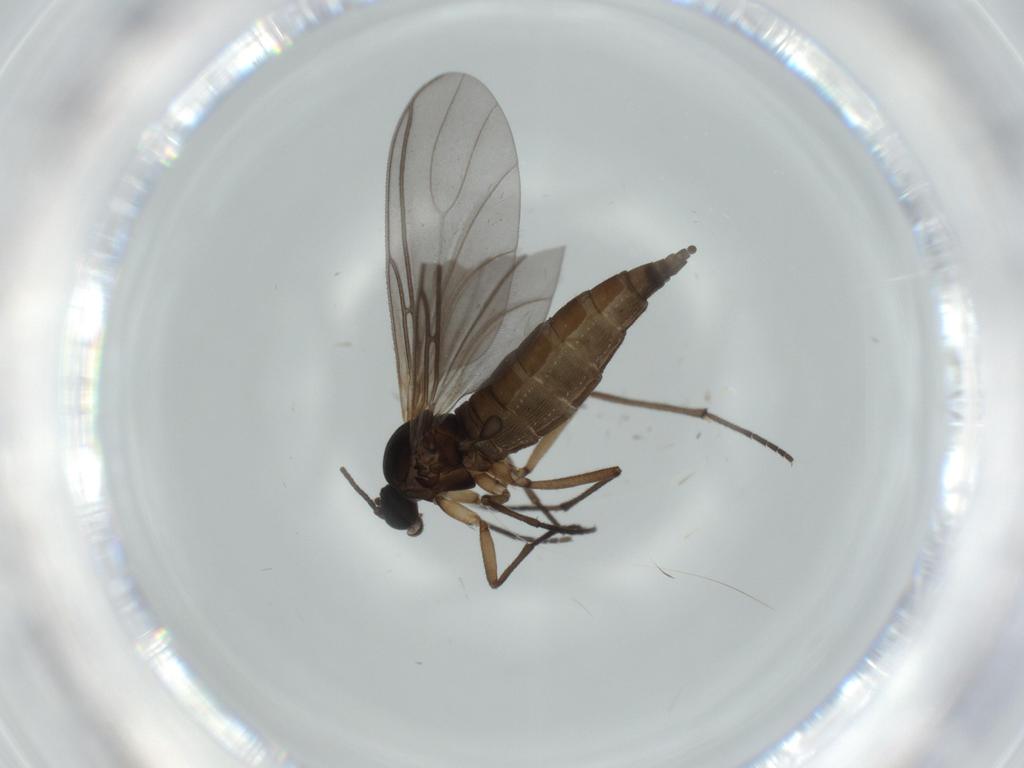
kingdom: Animalia
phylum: Arthropoda
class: Insecta
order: Diptera
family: Sciaridae
